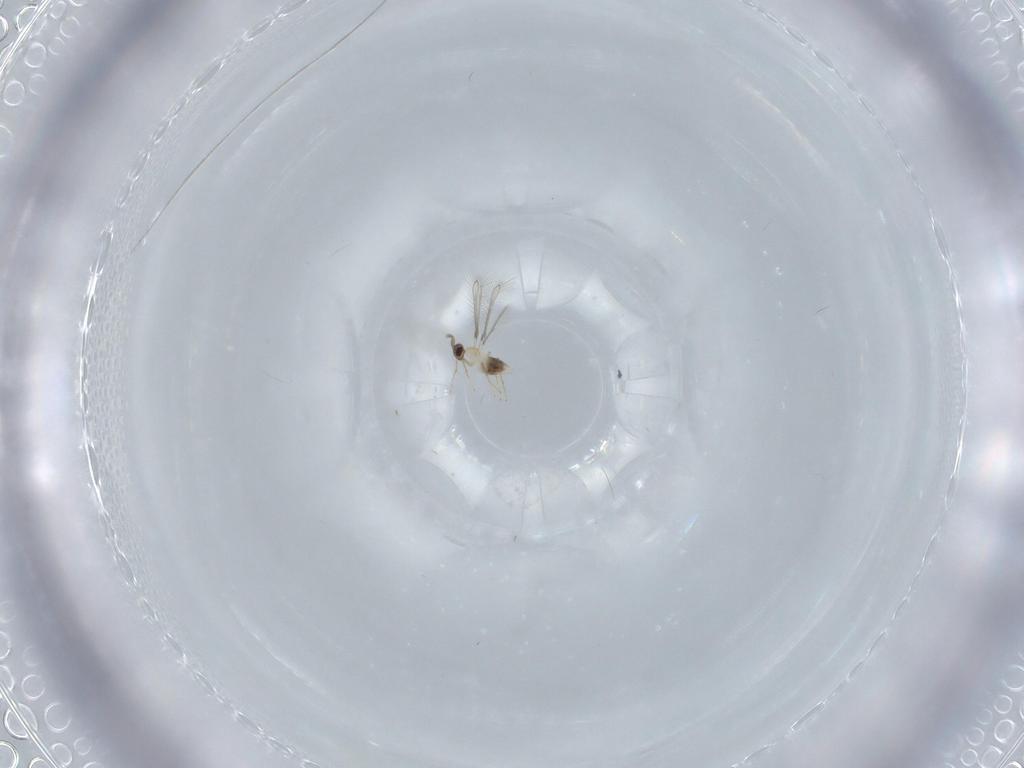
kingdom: Animalia
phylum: Arthropoda
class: Insecta
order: Hymenoptera
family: Mymaridae
